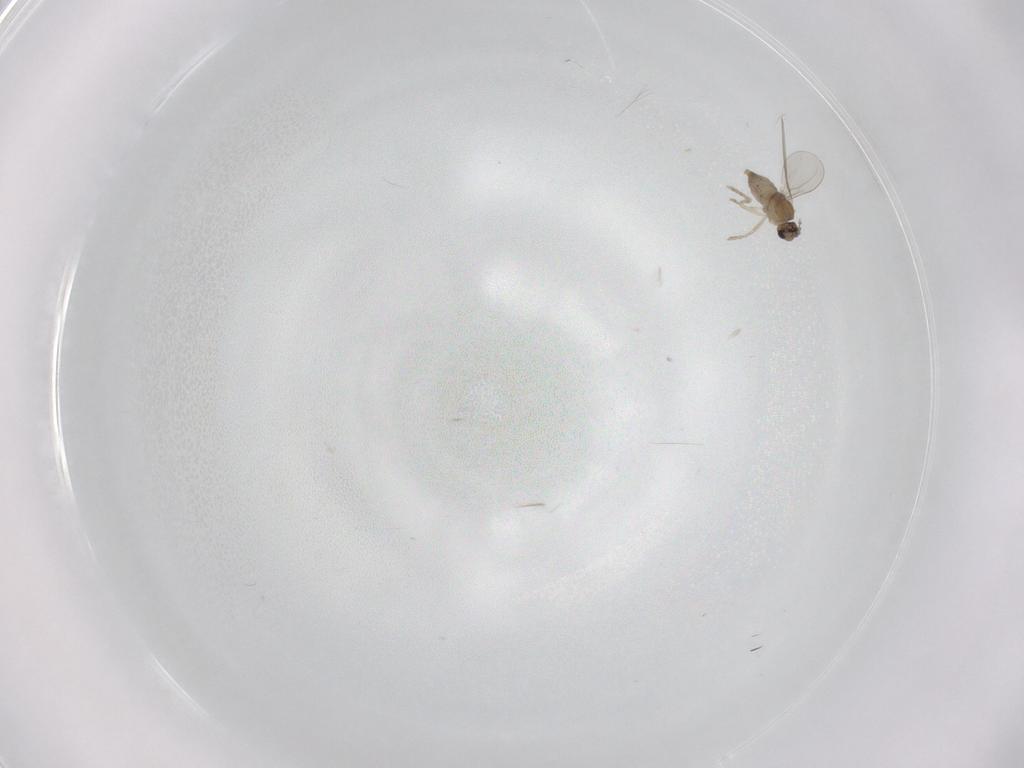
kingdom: Animalia
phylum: Arthropoda
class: Insecta
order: Diptera
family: Cecidomyiidae
